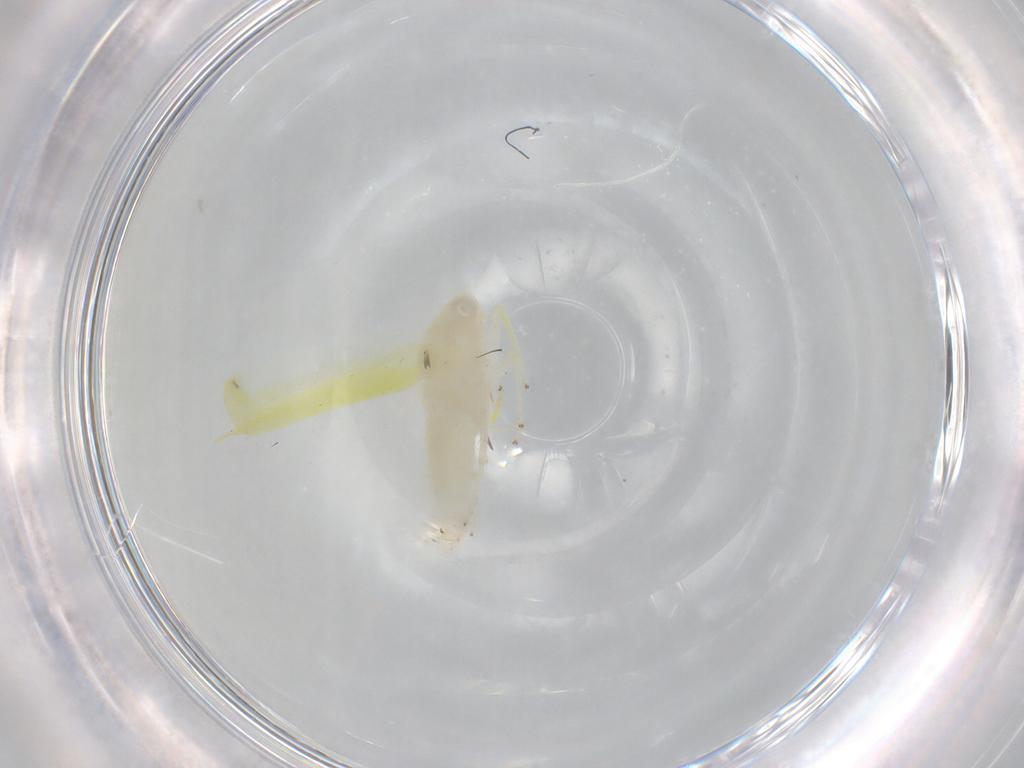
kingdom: Animalia
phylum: Arthropoda
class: Insecta
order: Hemiptera
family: Cicadellidae
